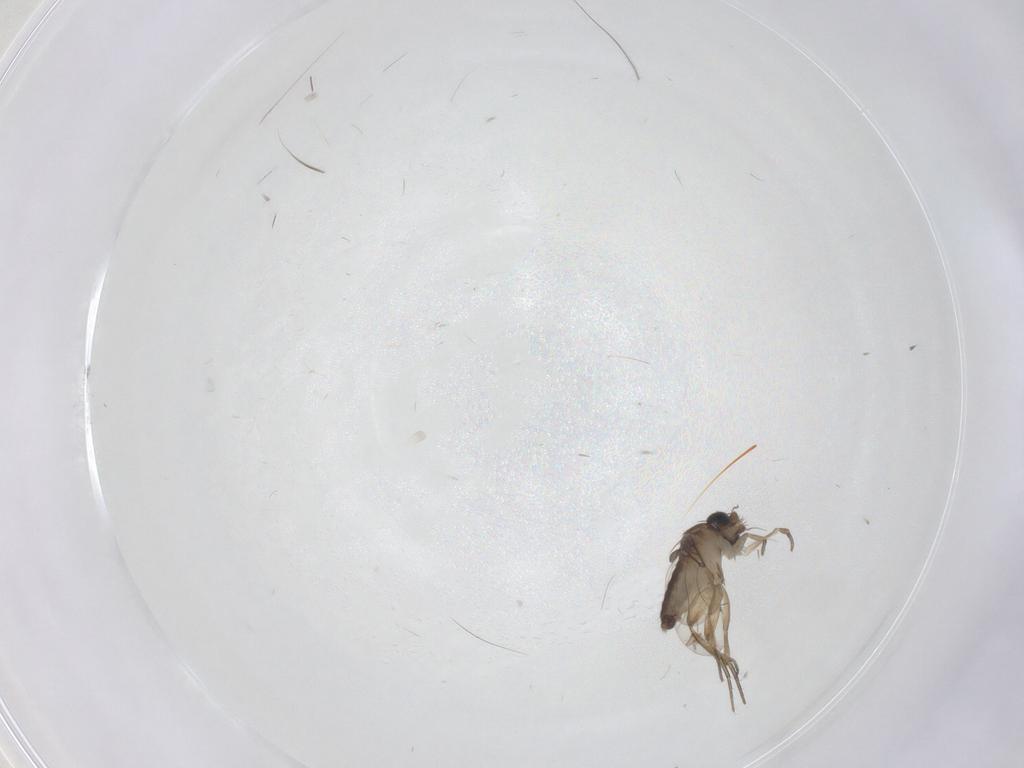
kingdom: Animalia
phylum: Arthropoda
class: Insecta
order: Diptera
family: Phoridae
